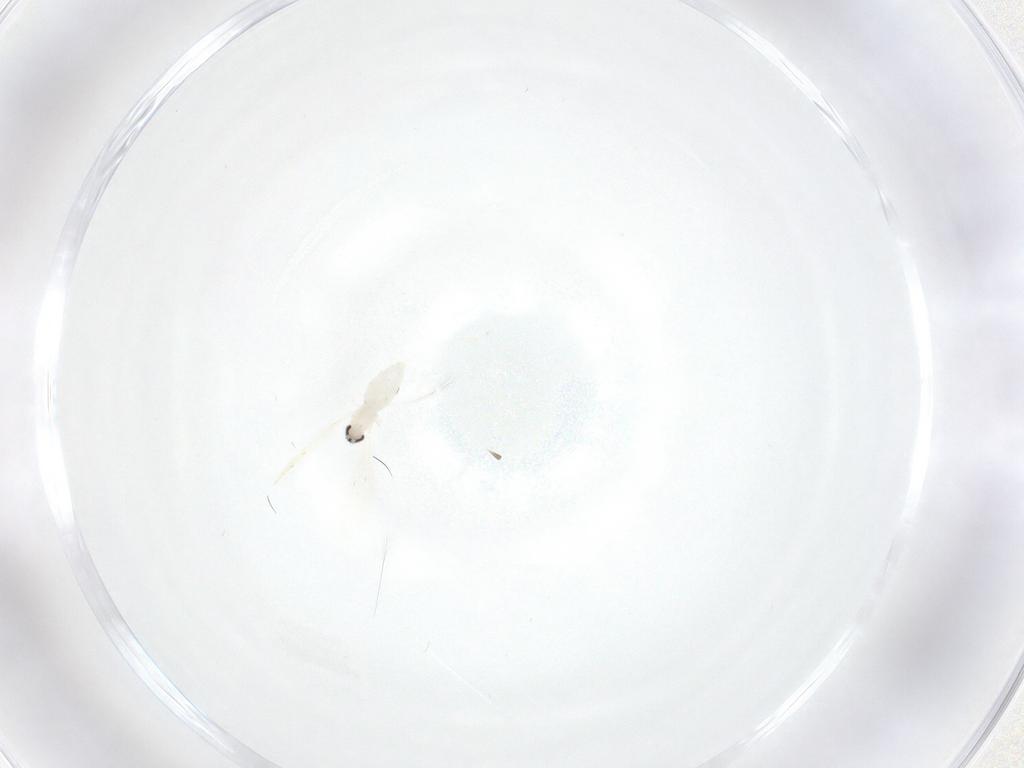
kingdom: Animalia
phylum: Arthropoda
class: Insecta
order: Diptera
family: Cecidomyiidae
